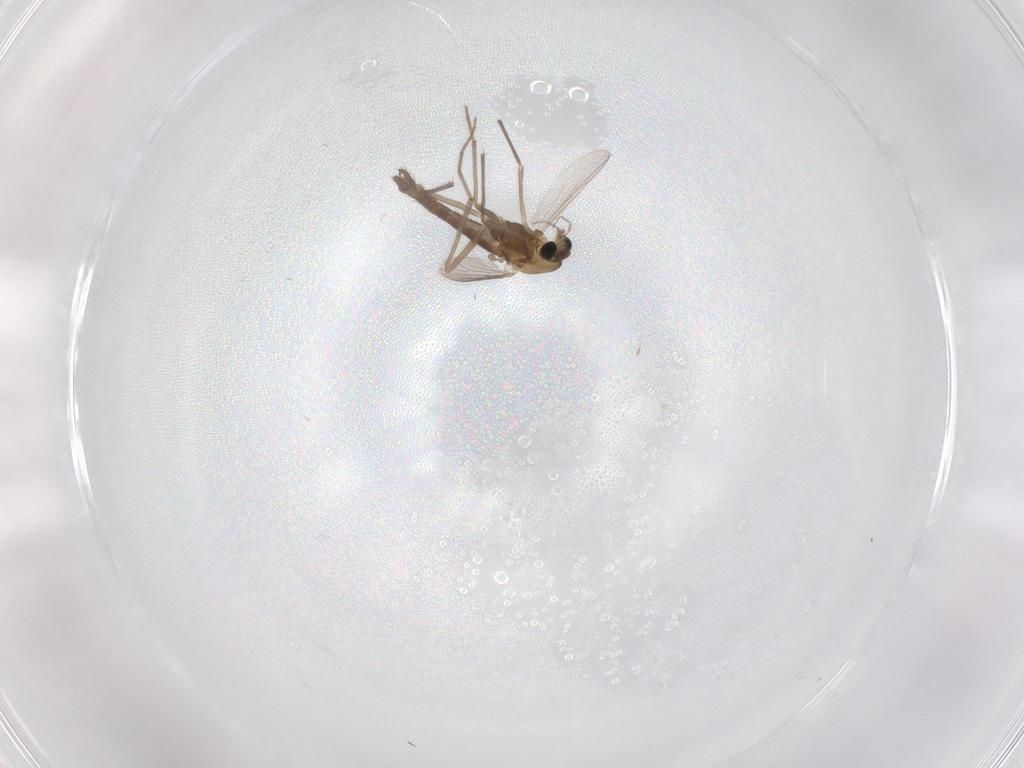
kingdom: Animalia
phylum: Arthropoda
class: Insecta
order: Diptera
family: Chironomidae
